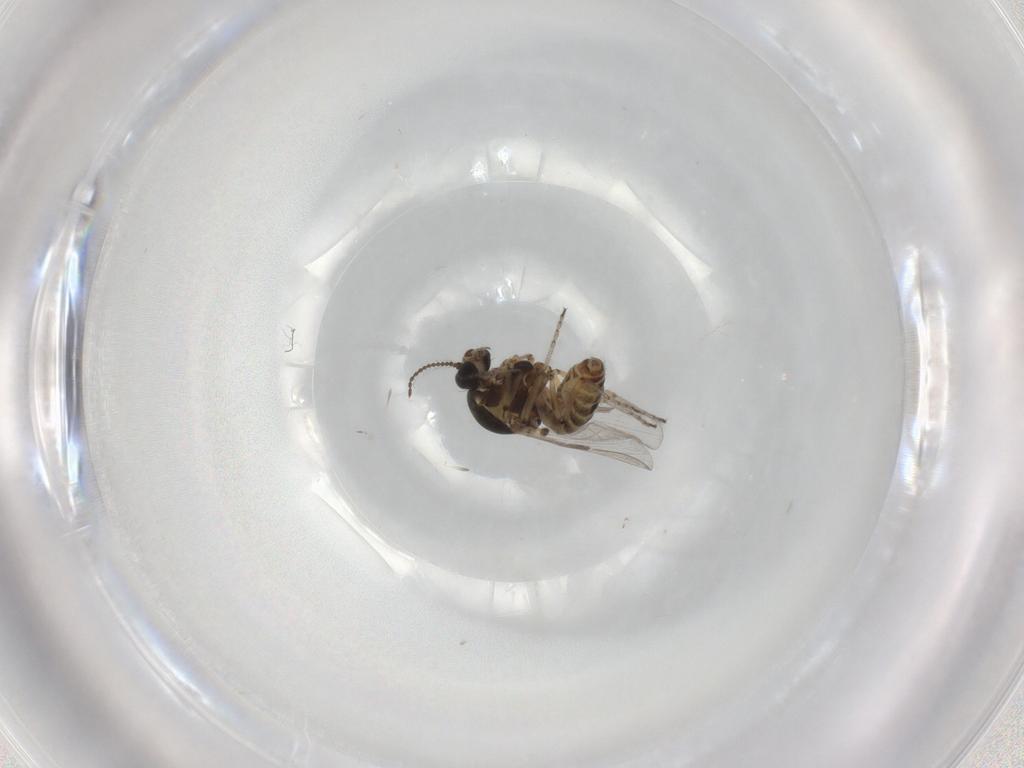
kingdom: Animalia
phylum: Arthropoda
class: Insecta
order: Diptera
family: Ceratopogonidae
